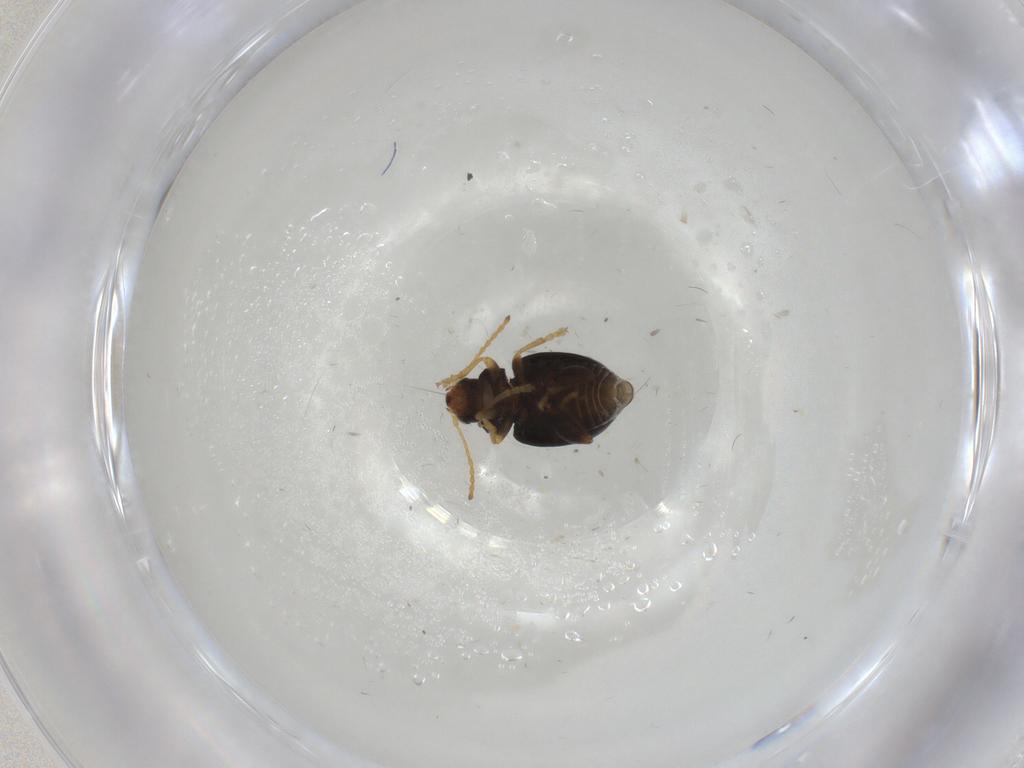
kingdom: Animalia
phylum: Arthropoda
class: Insecta
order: Coleoptera
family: Chrysomelidae
